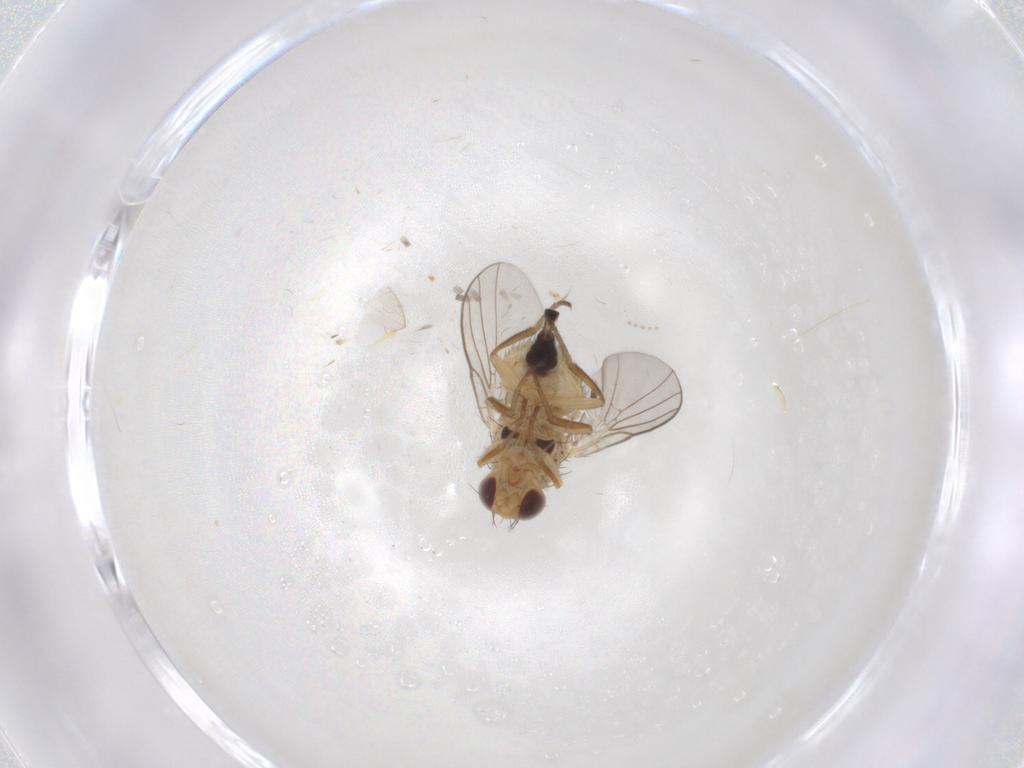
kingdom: Animalia
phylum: Arthropoda
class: Insecta
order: Diptera
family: Agromyzidae
